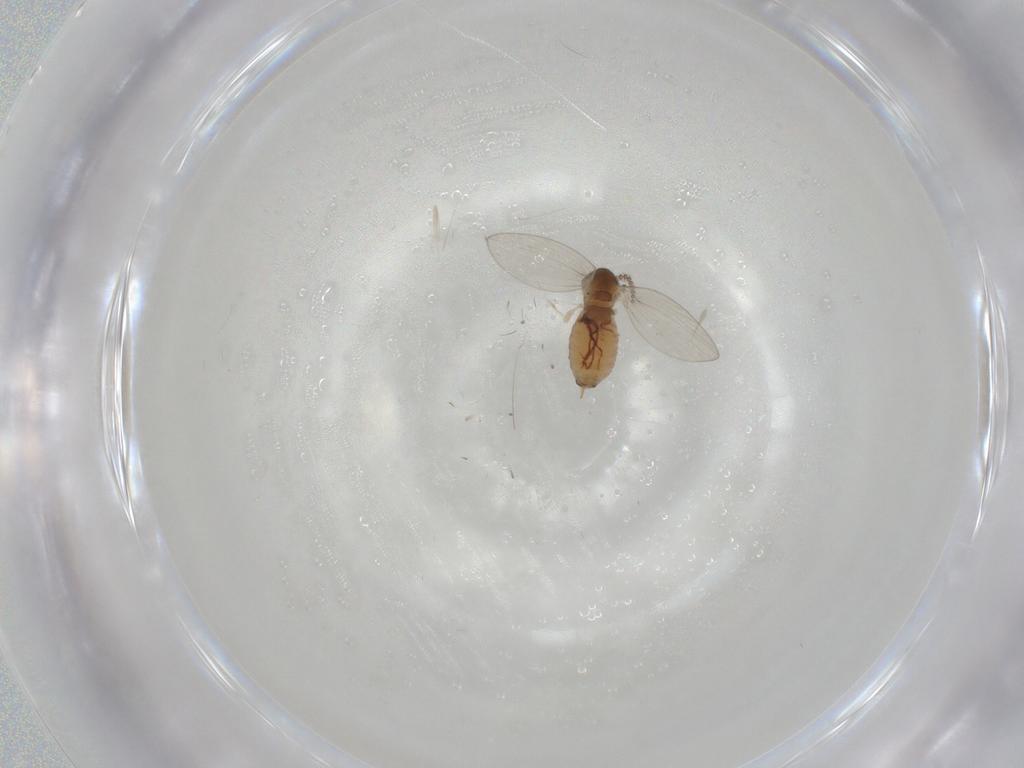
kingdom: Animalia
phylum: Arthropoda
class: Insecta
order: Diptera
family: Psychodidae
